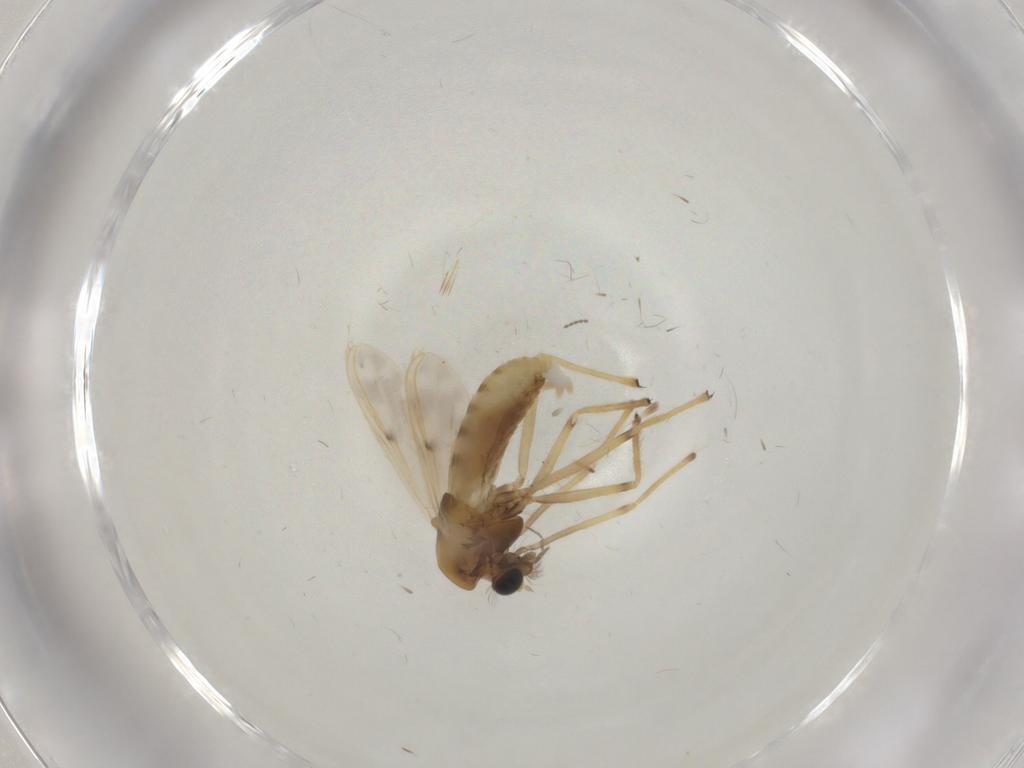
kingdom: Animalia
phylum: Arthropoda
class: Insecta
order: Diptera
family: Chironomidae
